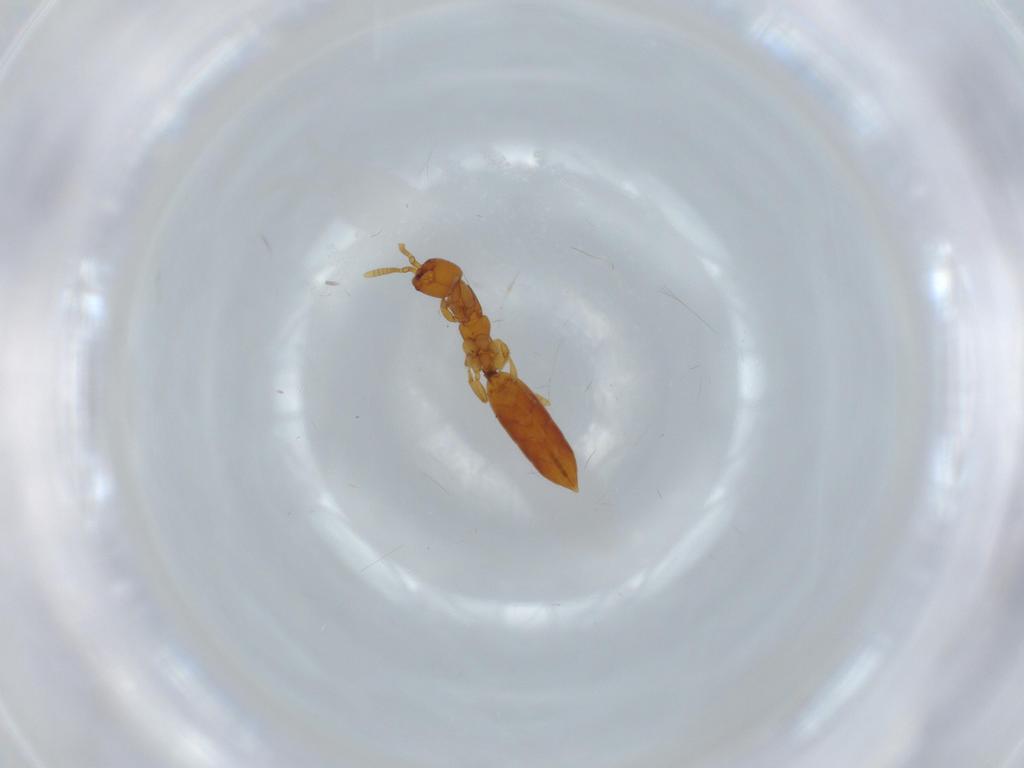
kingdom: Animalia
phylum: Arthropoda
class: Insecta
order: Hymenoptera
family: Bethylidae
